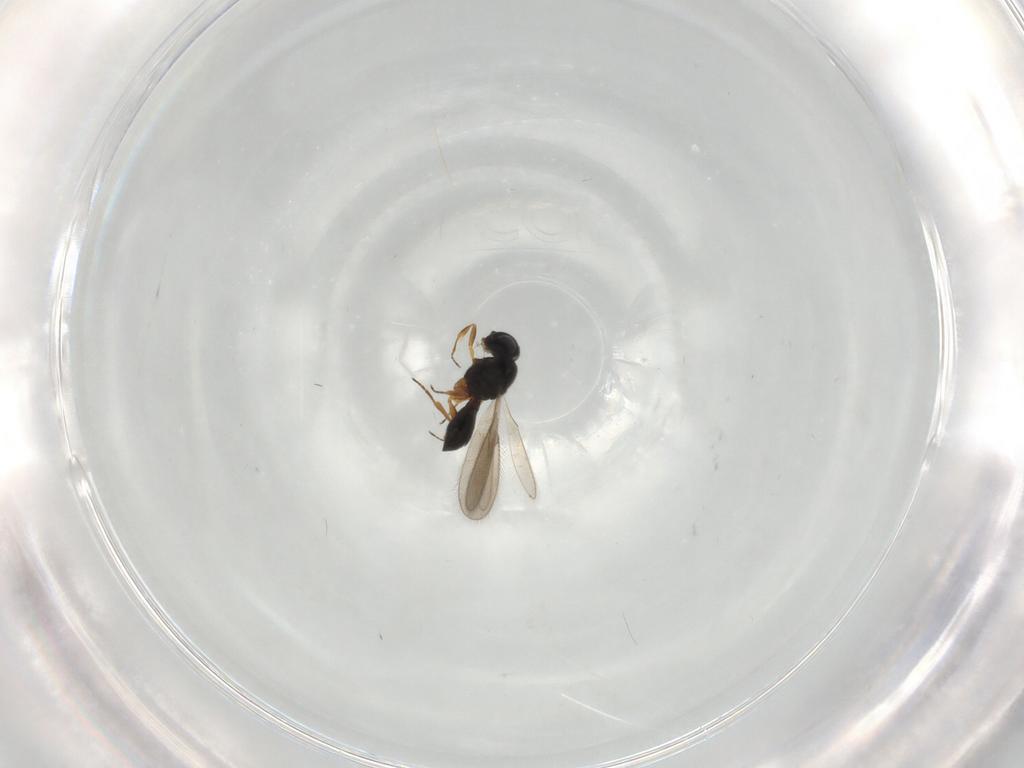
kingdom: Animalia
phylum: Arthropoda
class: Insecta
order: Hymenoptera
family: Scelionidae
